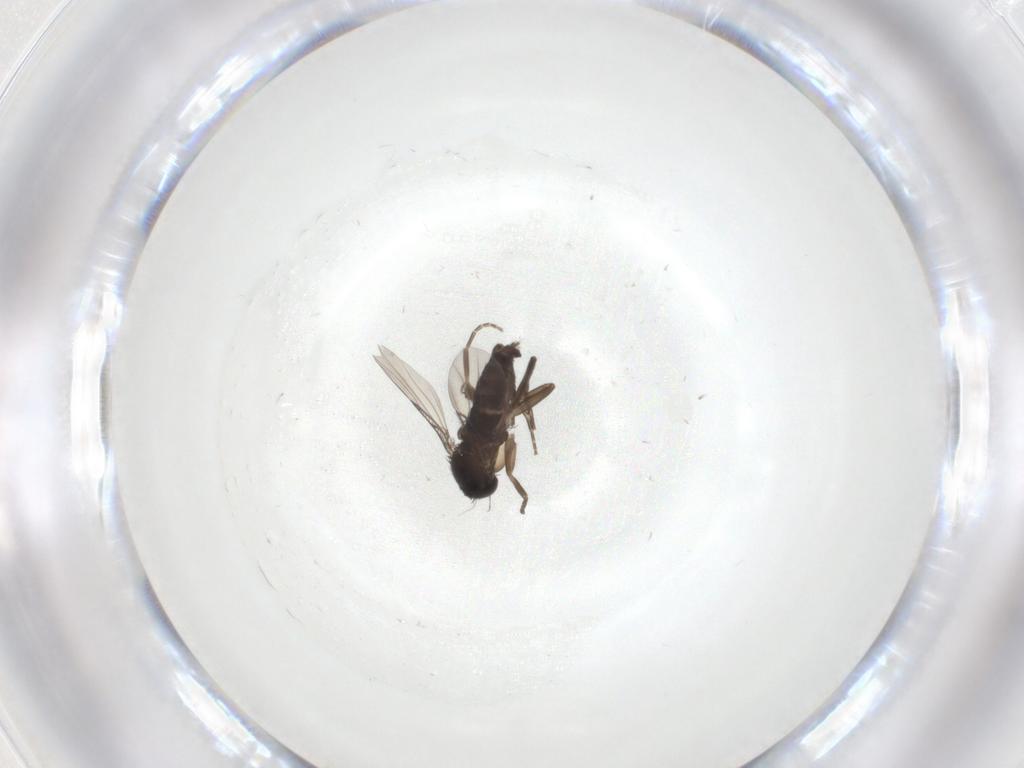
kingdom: Animalia
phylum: Arthropoda
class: Insecta
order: Diptera
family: Phoridae
